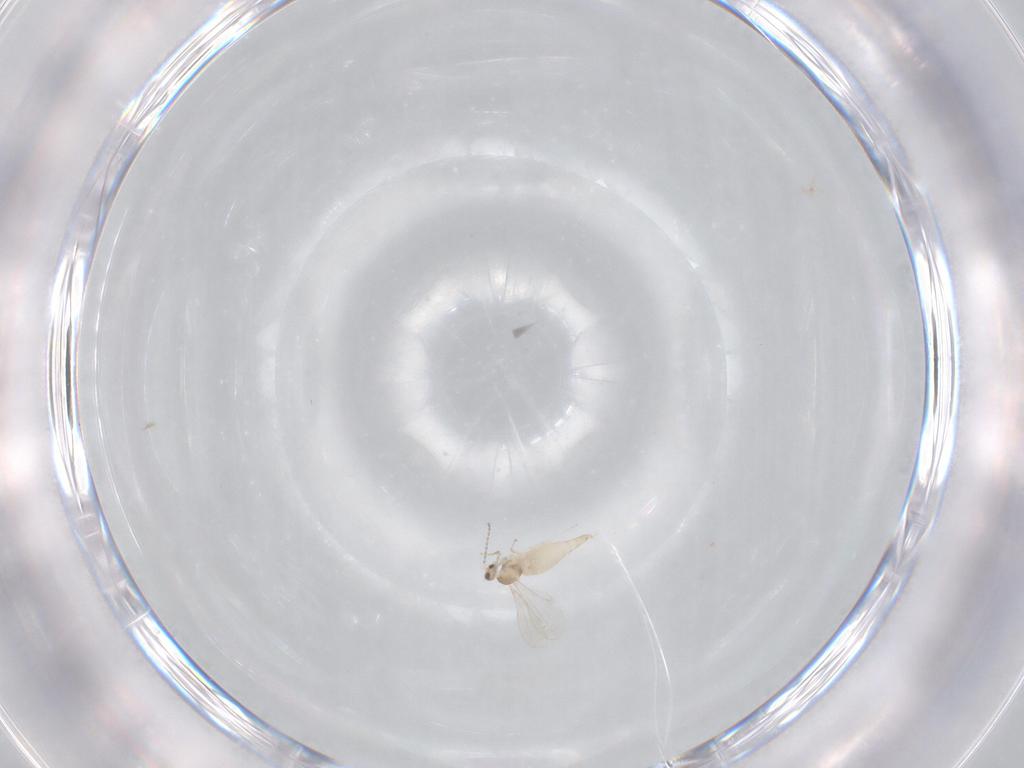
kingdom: Animalia
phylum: Arthropoda
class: Insecta
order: Diptera
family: Cecidomyiidae
